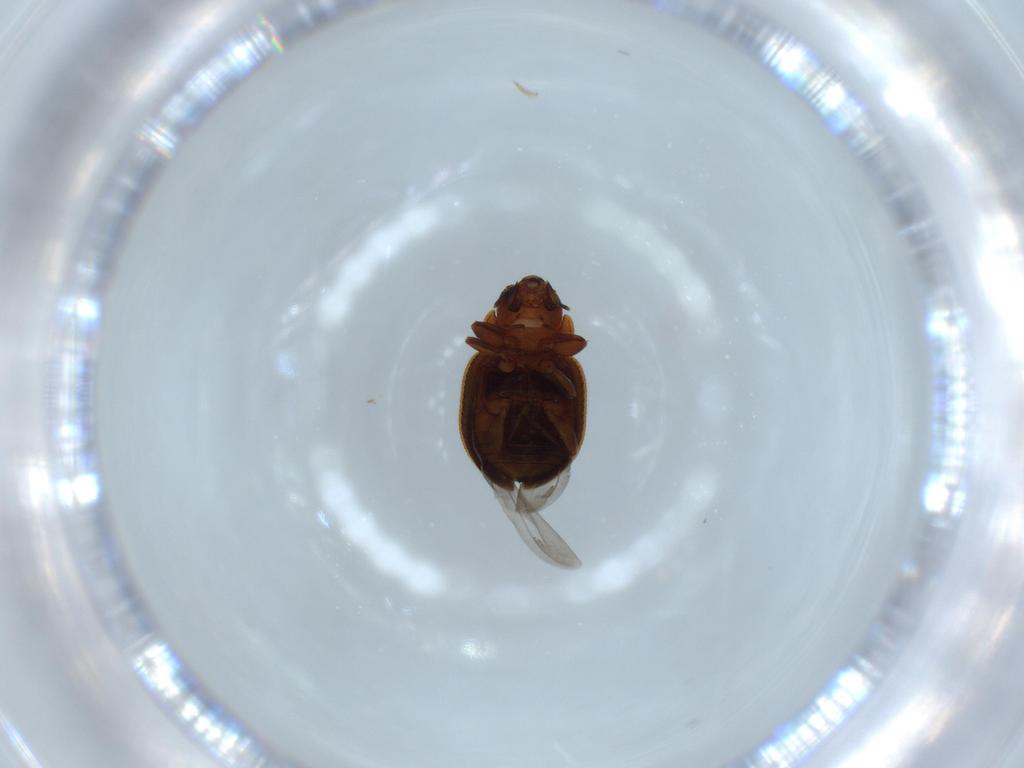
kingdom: Animalia
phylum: Arthropoda
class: Insecta
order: Coleoptera
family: Coccinellidae
